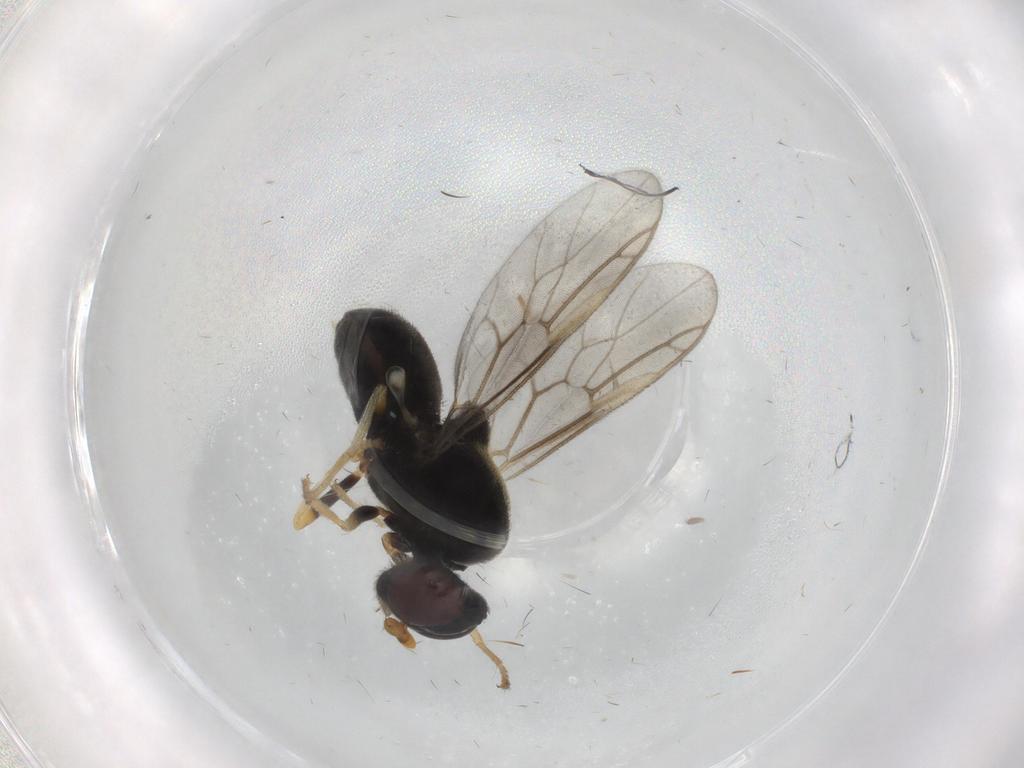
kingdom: Animalia
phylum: Arthropoda
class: Insecta
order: Diptera
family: Stratiomyidae
